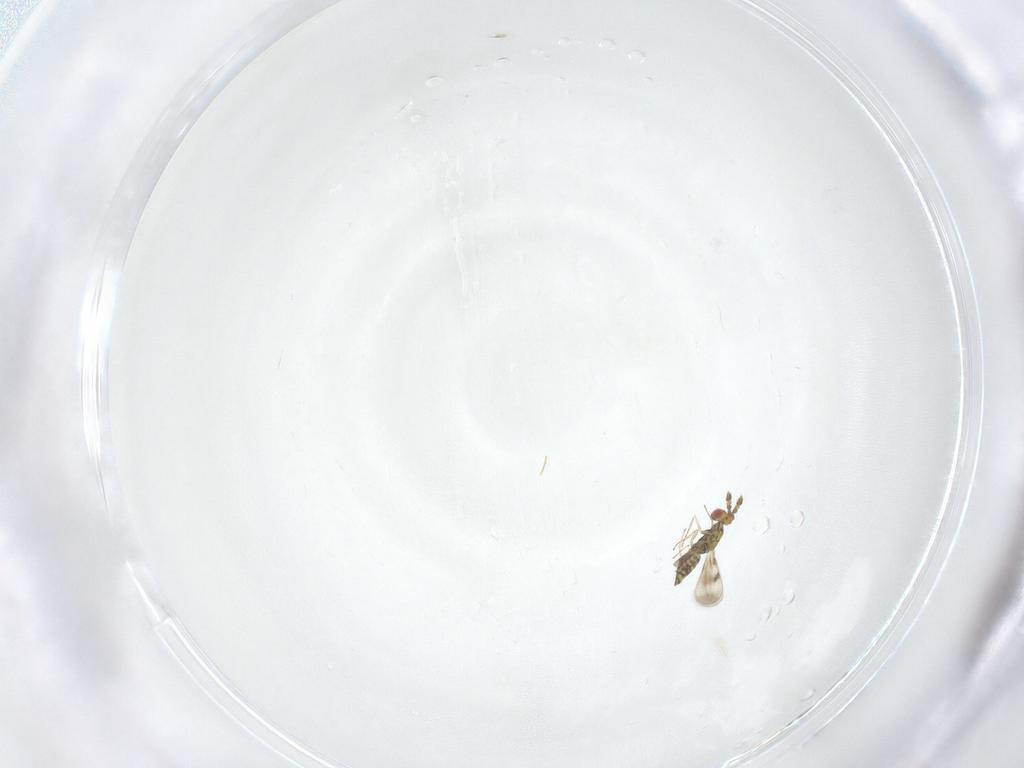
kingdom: Animalia
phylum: Arthropoda
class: Insecta
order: Hymenoptera
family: Eulophidae
